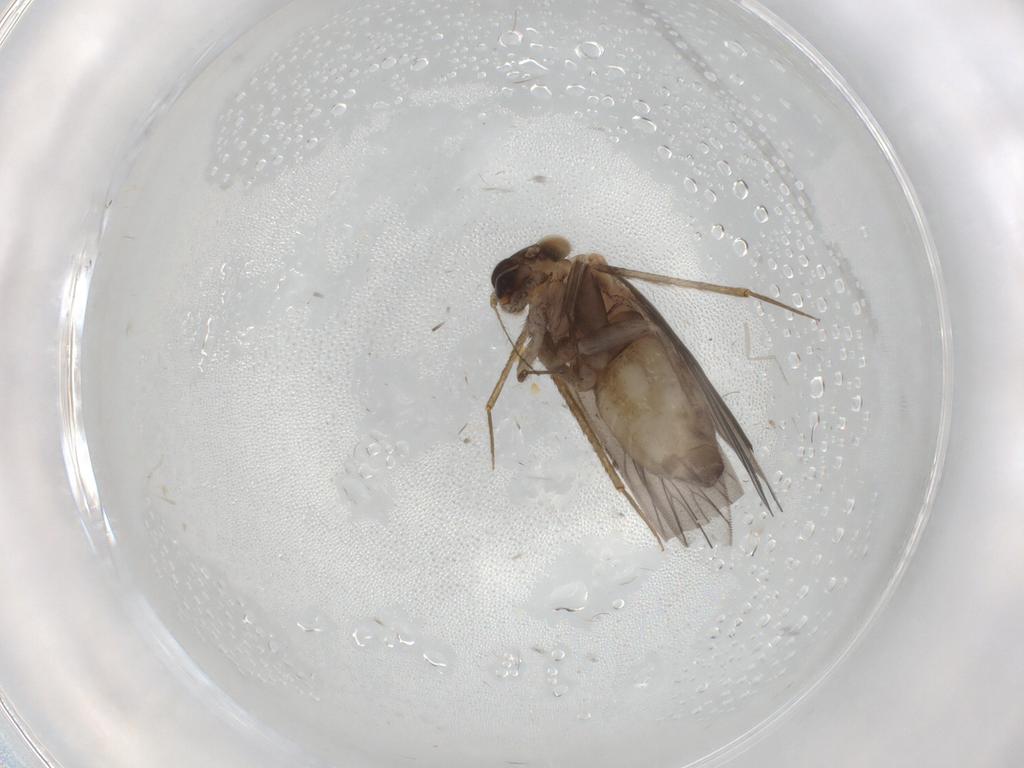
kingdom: Animalia
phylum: Arthropoda
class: Insecta
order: Psocodea
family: Lepidopsocidae
